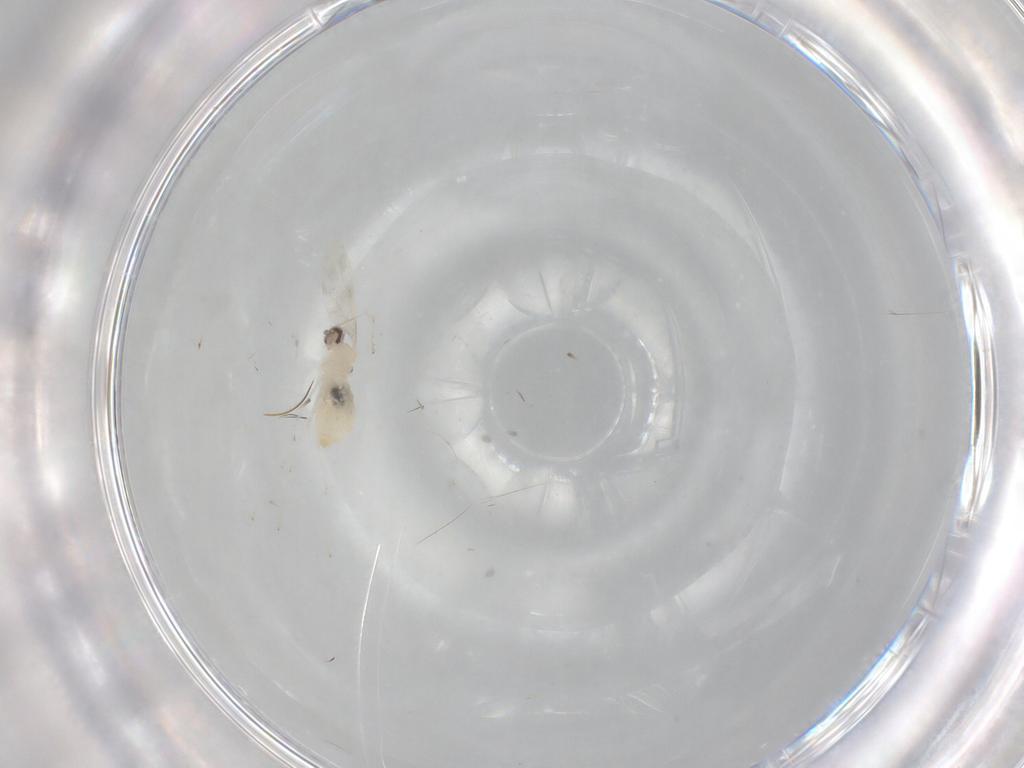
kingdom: Animalia
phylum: Arthropoda
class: Insecta
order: Diptera
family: Cecidomyiidae
